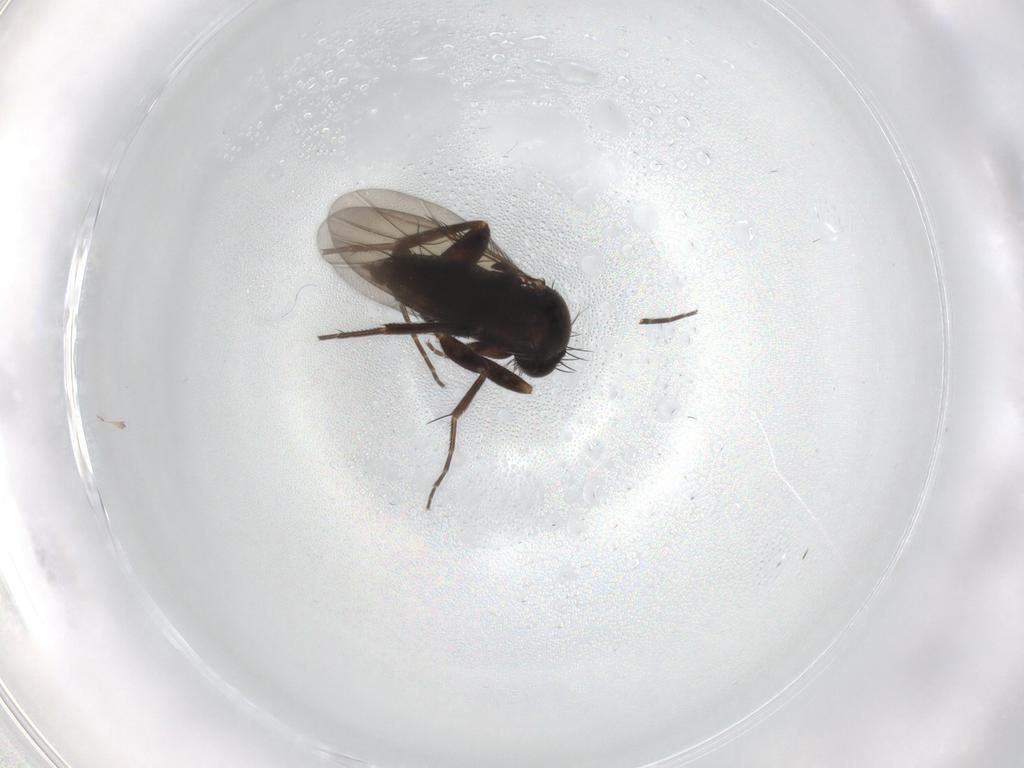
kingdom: Animalia
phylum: Arthropoda
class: Insecta
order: Diptera
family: Phoridae
